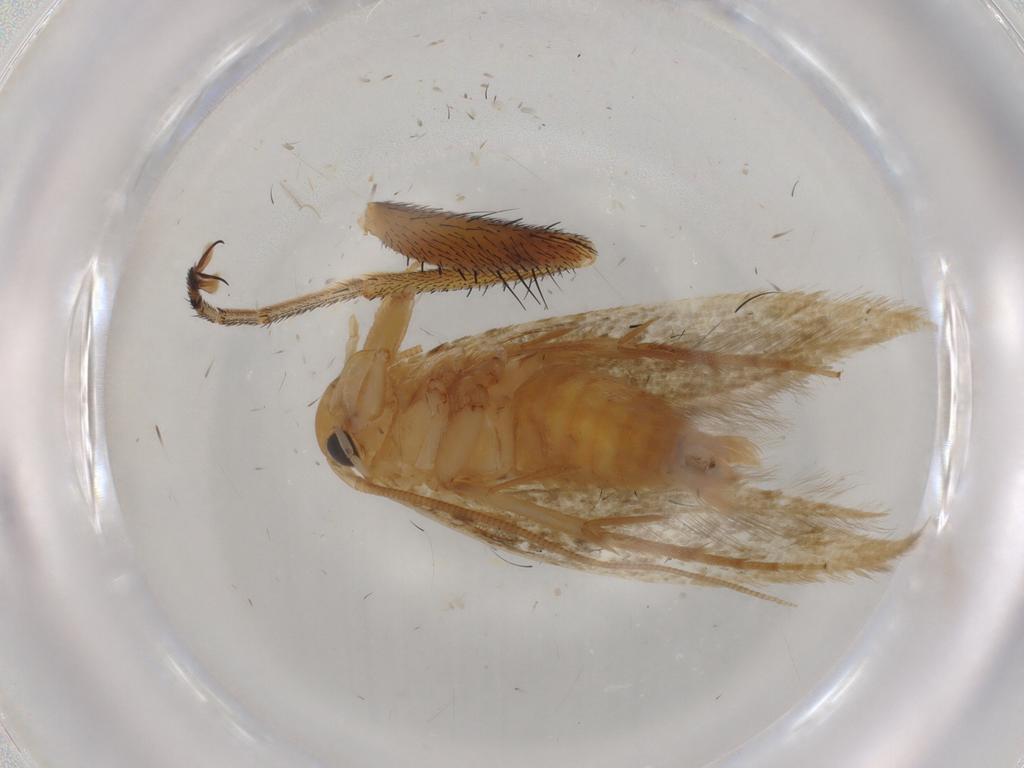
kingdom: Animalia
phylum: Arthropoda
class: Insecta
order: Lepidoptera
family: Tineidae
